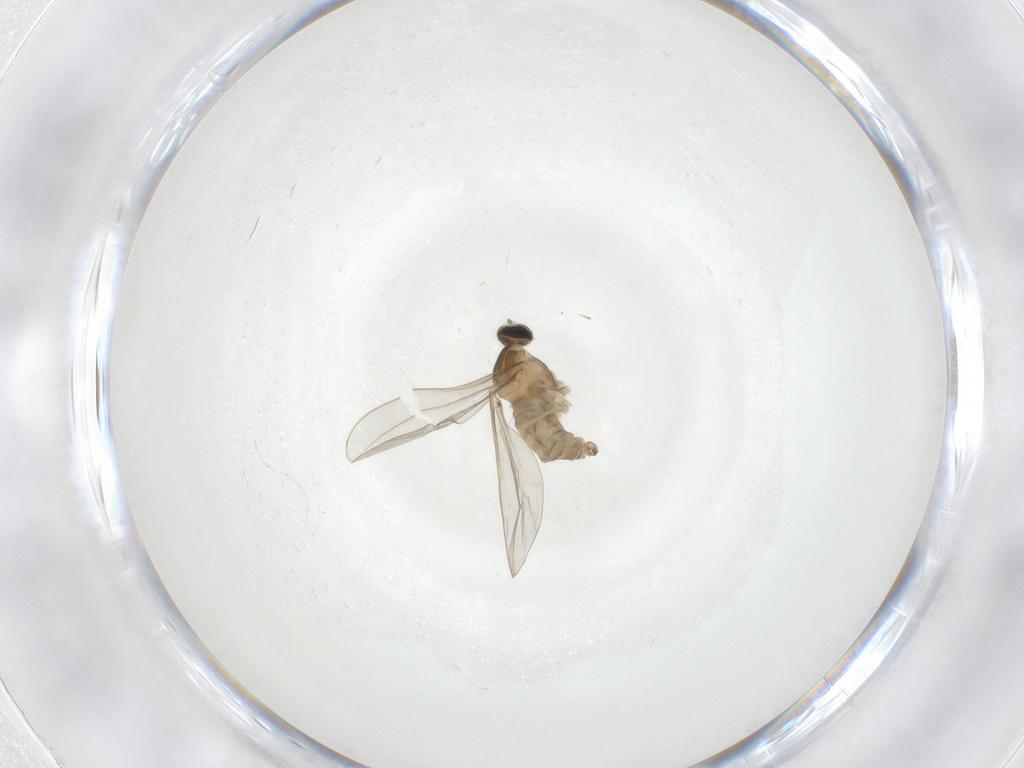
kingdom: Animalia
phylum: Arthropoda
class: Insecta
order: Diptera
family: Cecidomyiidae
